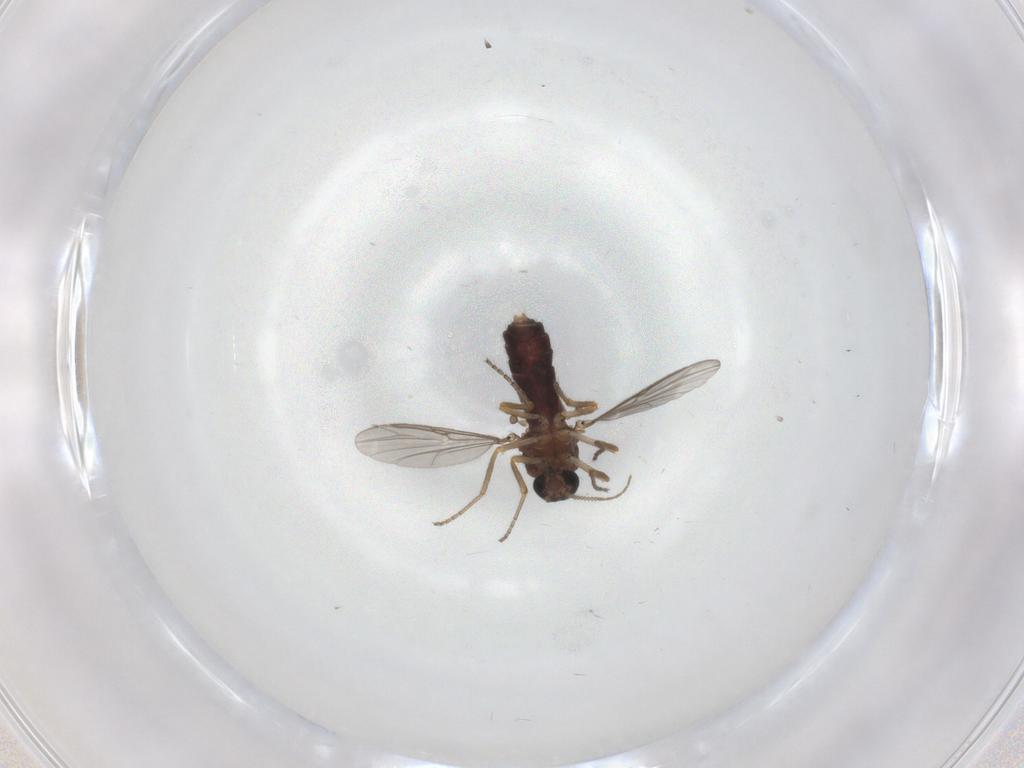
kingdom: Animalia
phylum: Arthropoda
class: Insecta
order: Diptera
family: Ceratopogonidae
